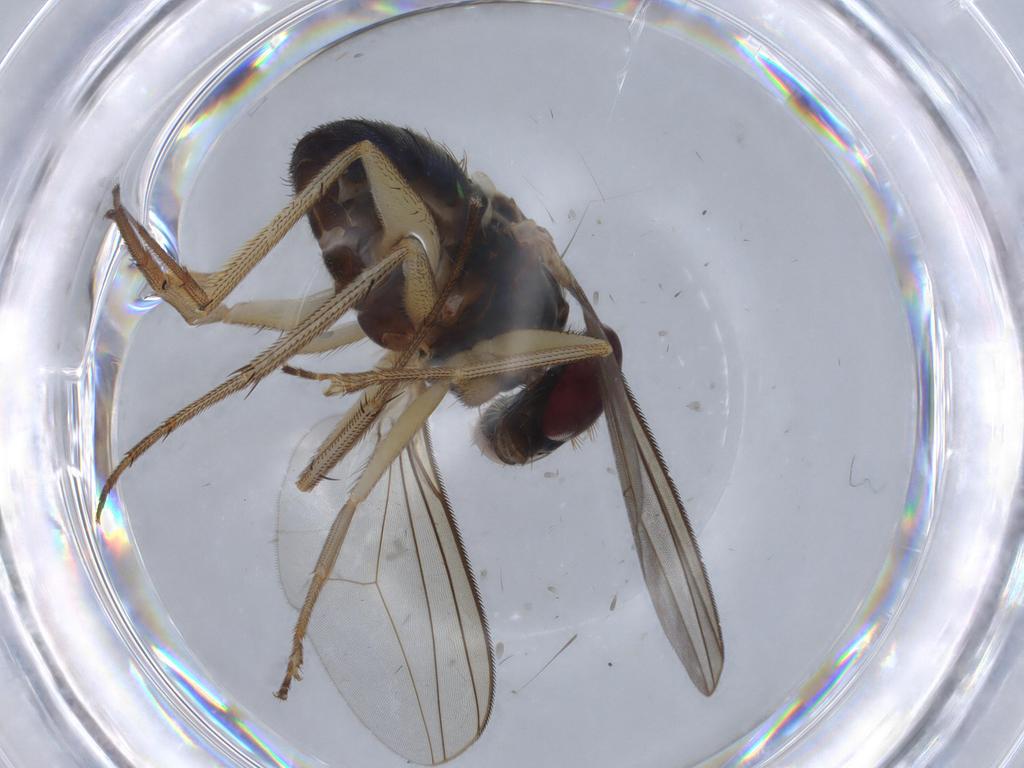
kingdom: Animalia
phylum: Arthropoda
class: Insecta
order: Diptera
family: Dolichopodidae
